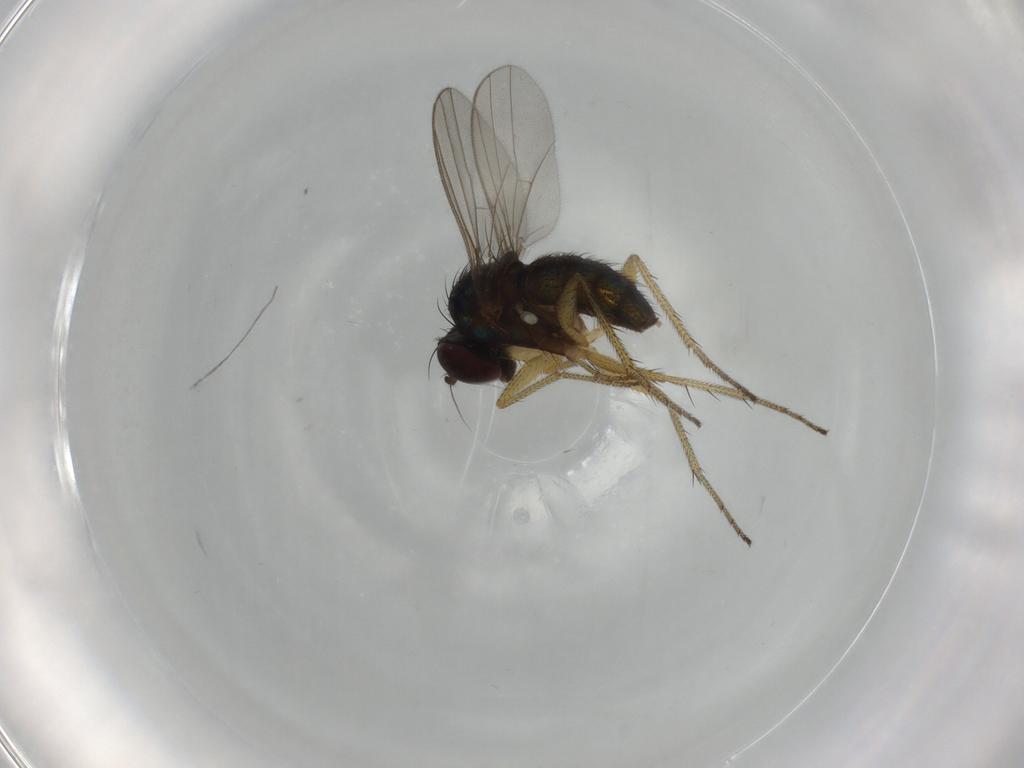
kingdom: Animalia
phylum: Arthropoda
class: Insecta
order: Diptera
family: Dolichopodidae
